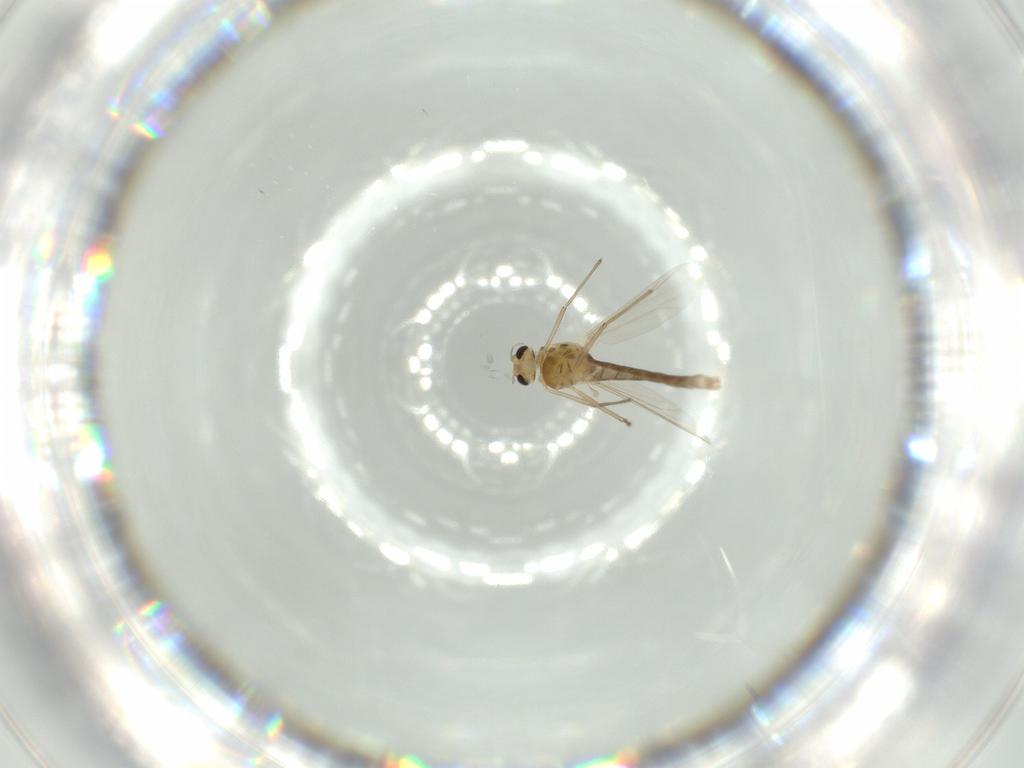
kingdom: Animalia
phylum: Arthropoda
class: Insecta
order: Diptera
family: Chironomidae
